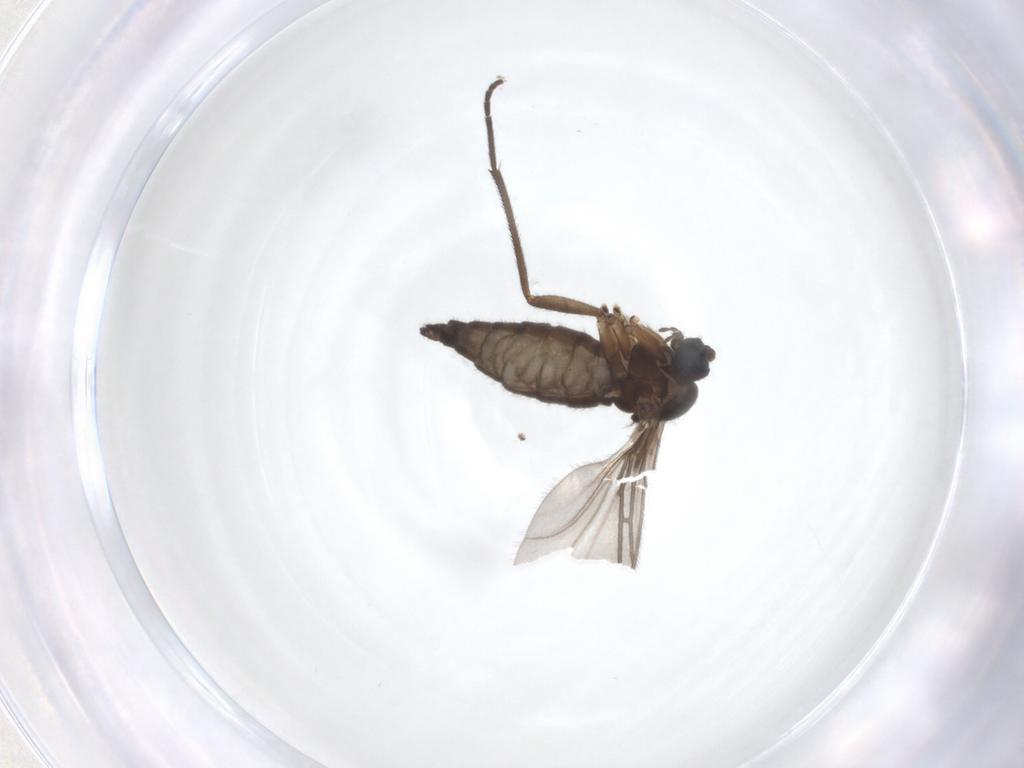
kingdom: Animalia
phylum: Arthropoda
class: Insecta
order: Diptera
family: Sciaridae
